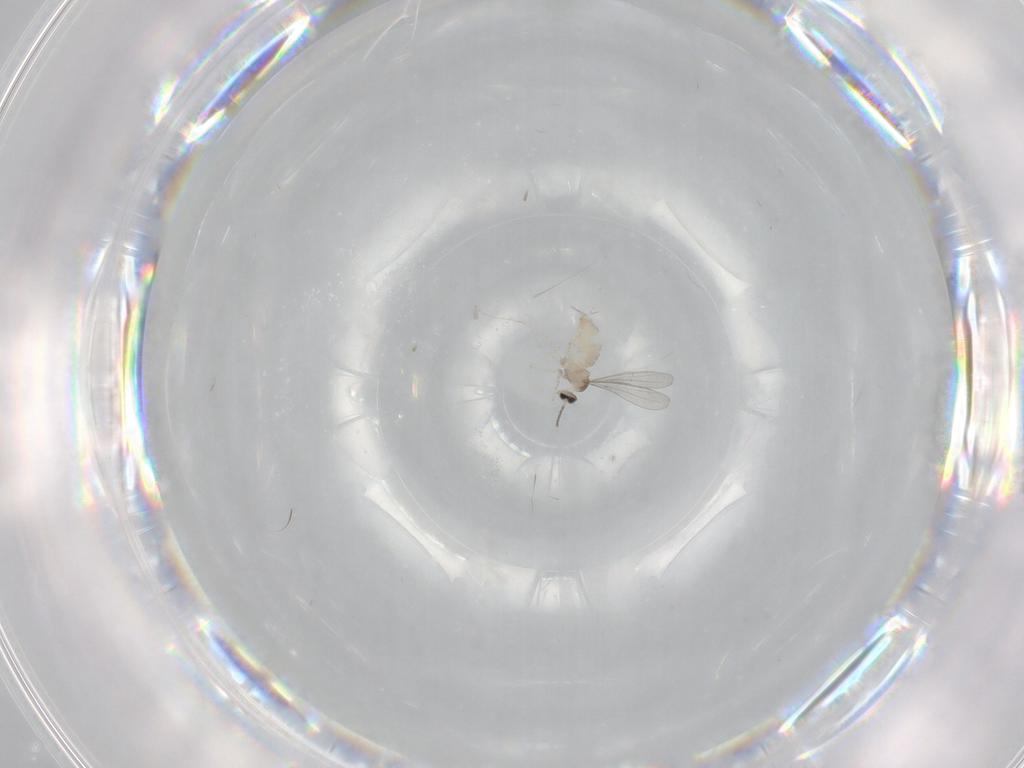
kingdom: Animalia
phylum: Arthropoda
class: Insecta
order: Diptera
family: Cecidomyiidae
